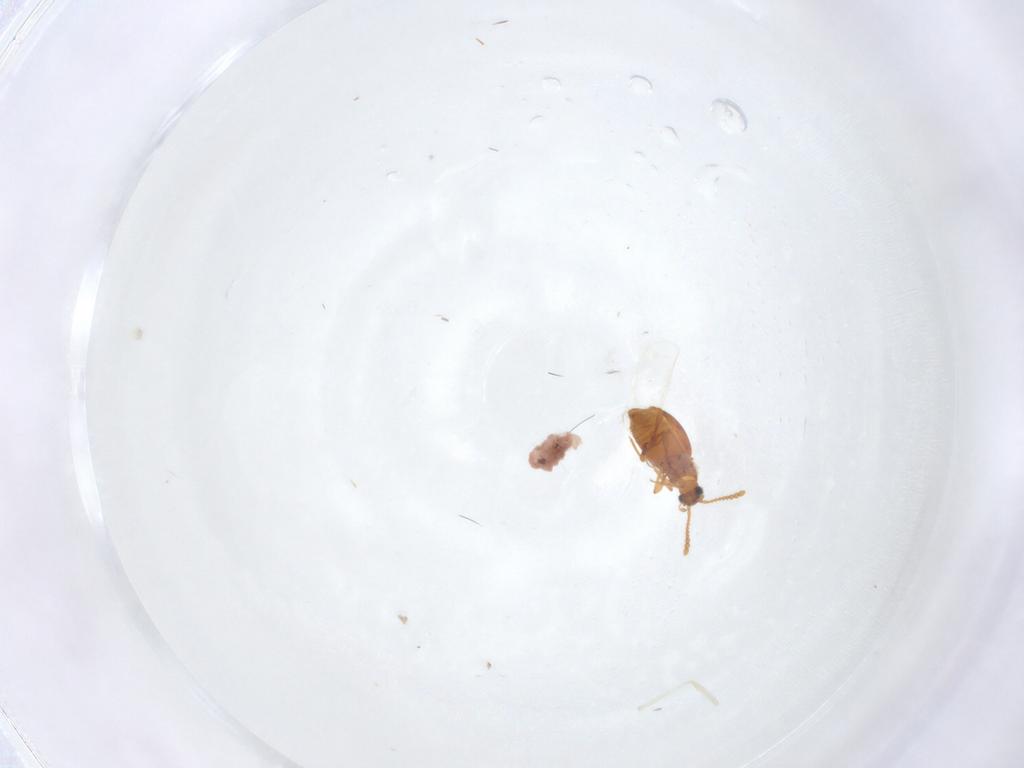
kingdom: Animalia
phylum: Arthropoda
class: Insecta
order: Coleoptera
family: Staphylinidae
